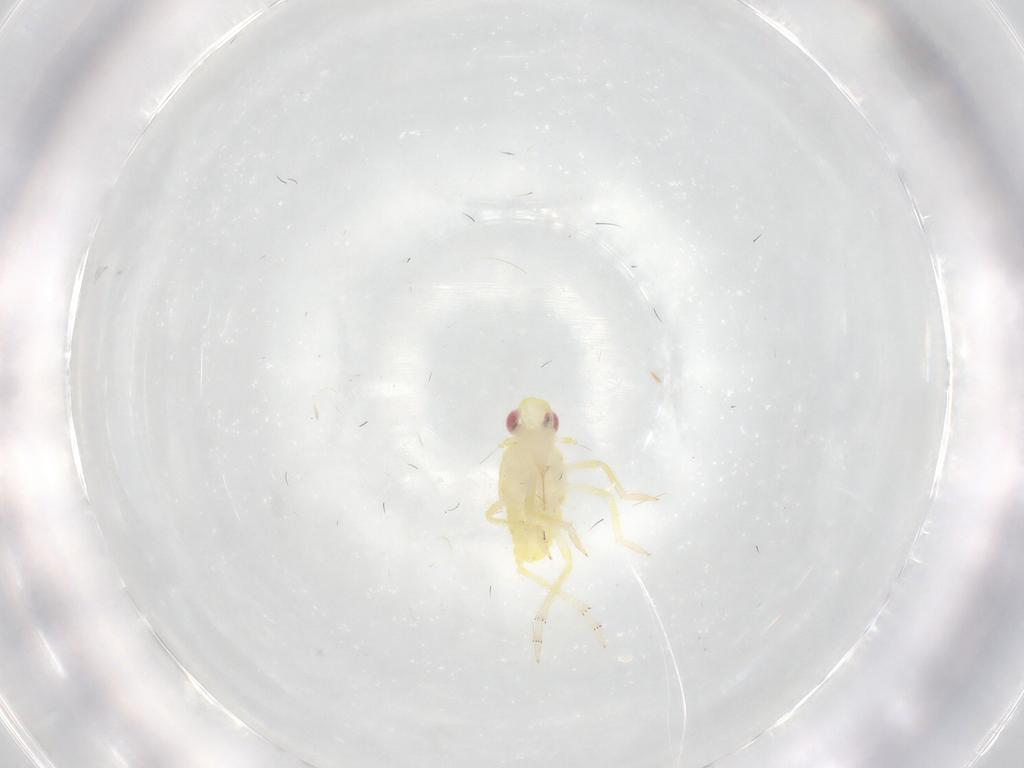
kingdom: Animalia
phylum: Arthropoda
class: Insecta
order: Hemiptera
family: Tropiduchidae
